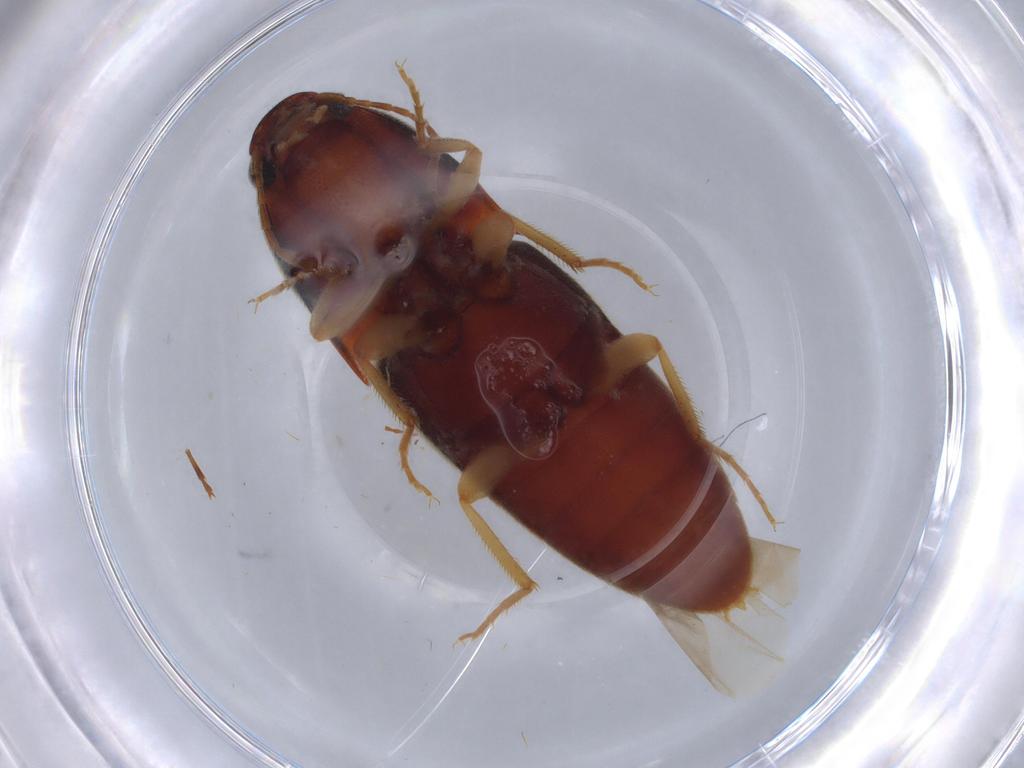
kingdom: Animalia
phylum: Arthropoda
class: Insecta
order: Coleoptera
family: Elateridae
